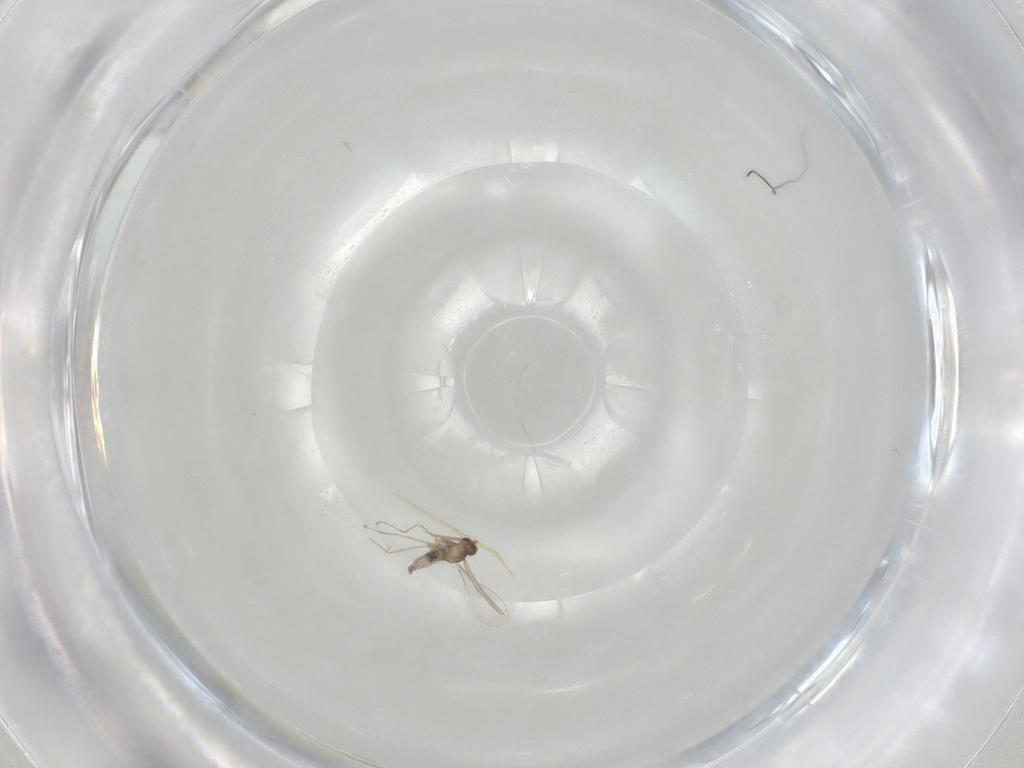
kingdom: Animalia
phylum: Arthropoda
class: Insecta
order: Diptera
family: Cecidomyiidae
